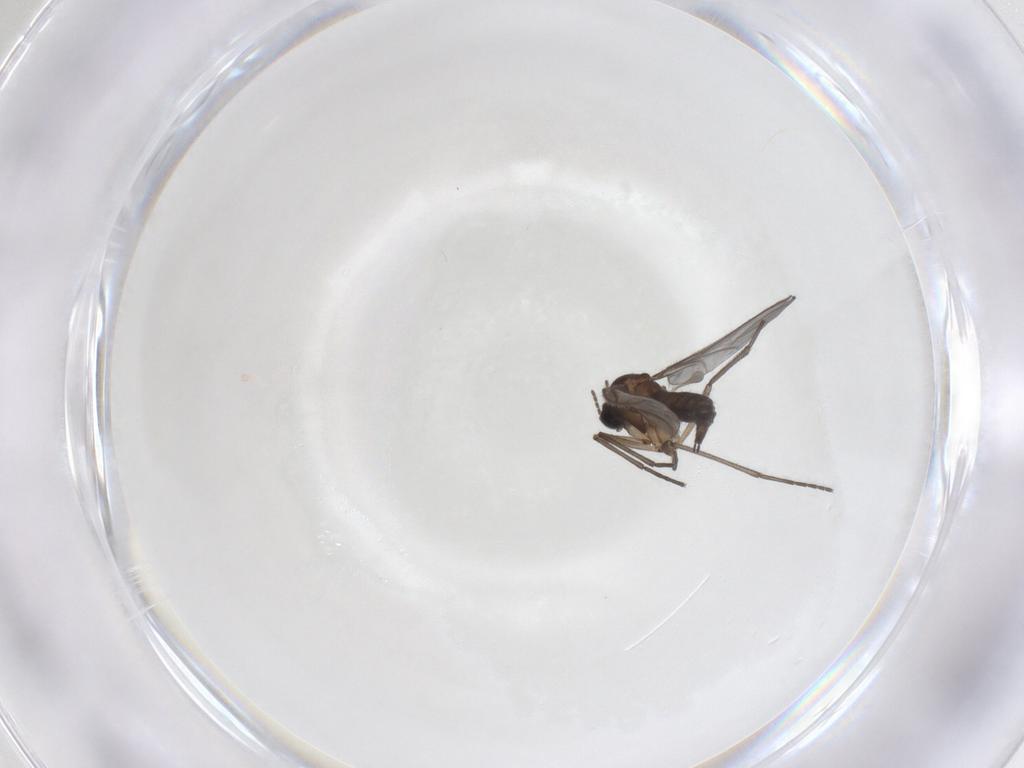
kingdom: Animalia
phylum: Arthropoda
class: Insecta
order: Diptera
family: Sciaridae
